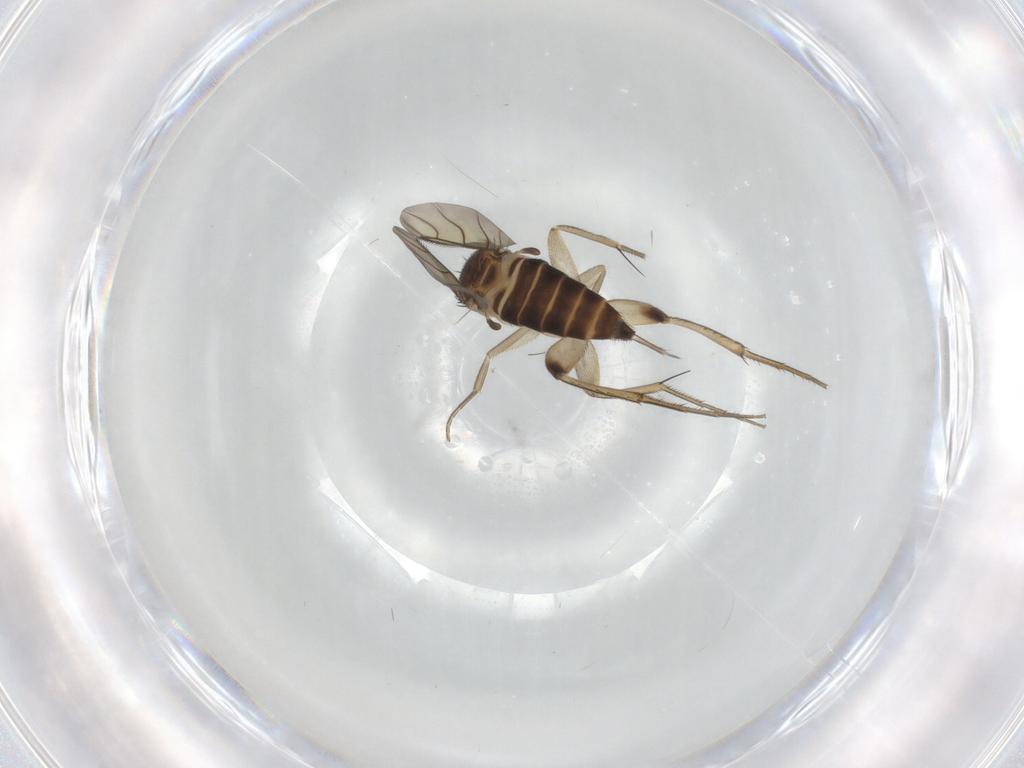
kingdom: Animalia
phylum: Arthropoda
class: Insecta
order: Diptera
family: Phoridae
